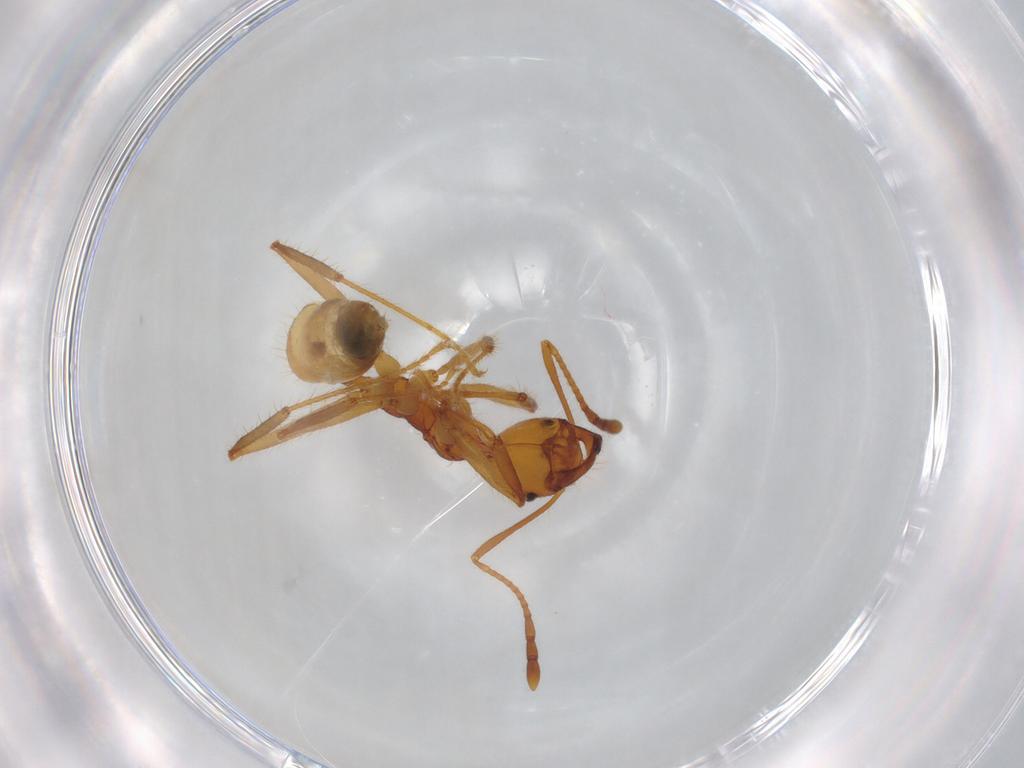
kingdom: Animalia
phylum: Arthropoda
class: Insecta
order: Hymenoptera
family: Formicidae
